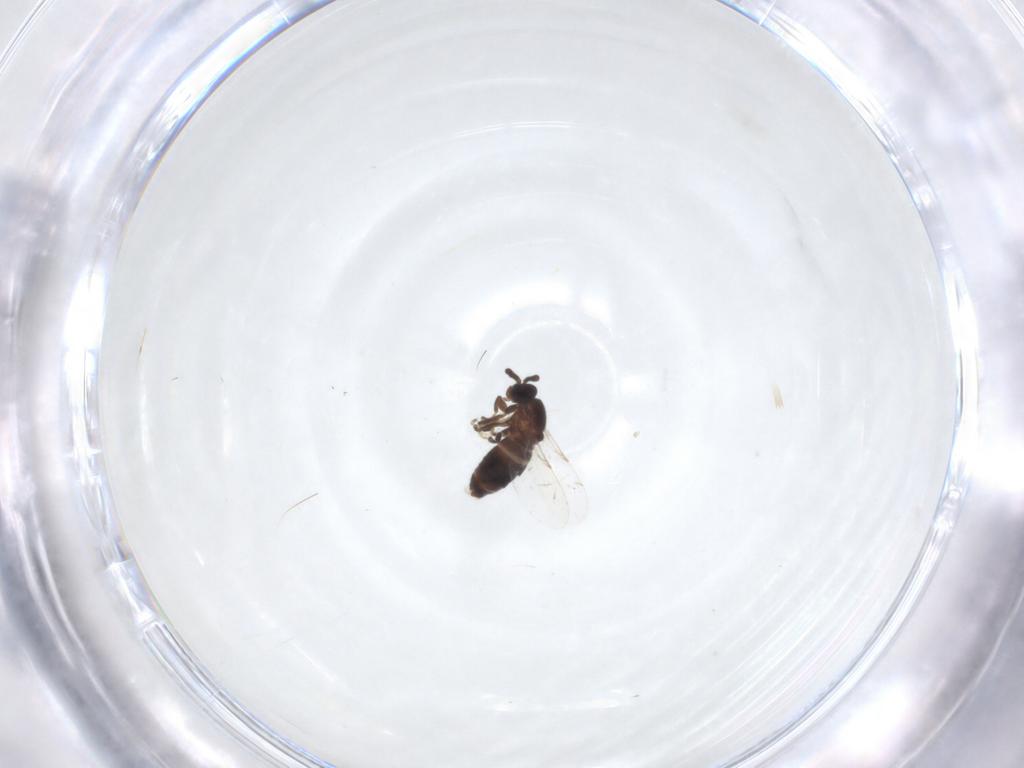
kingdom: Animalia
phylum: Arthropoda
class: Insecta
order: Diptera
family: Scatopsidae
